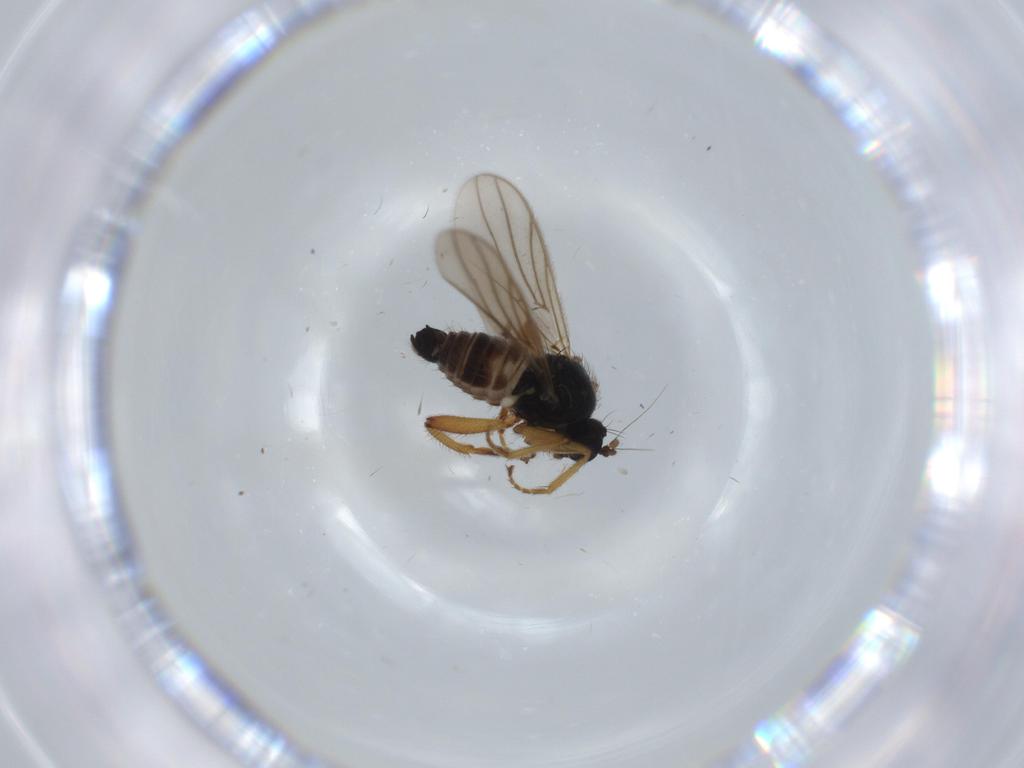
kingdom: Animalia
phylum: Arthropoda
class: Insecta
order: Diptera
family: Hybotidae
